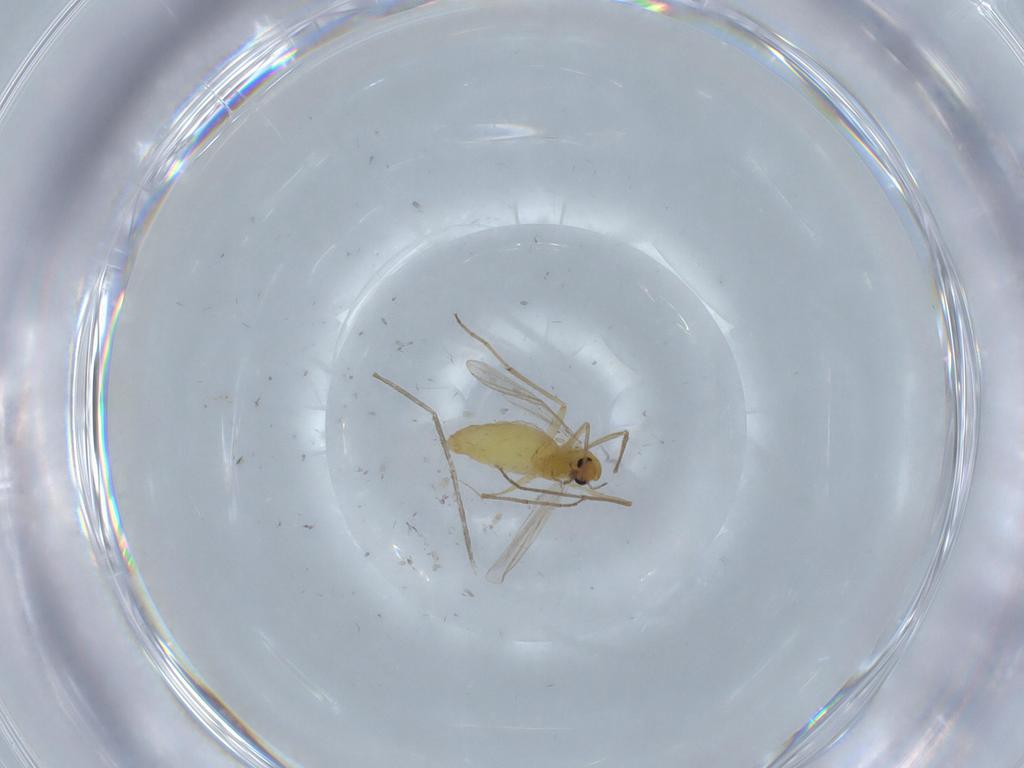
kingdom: Animalia
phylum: Arthropoda
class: Insecta
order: Diptera
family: Chironomidae
